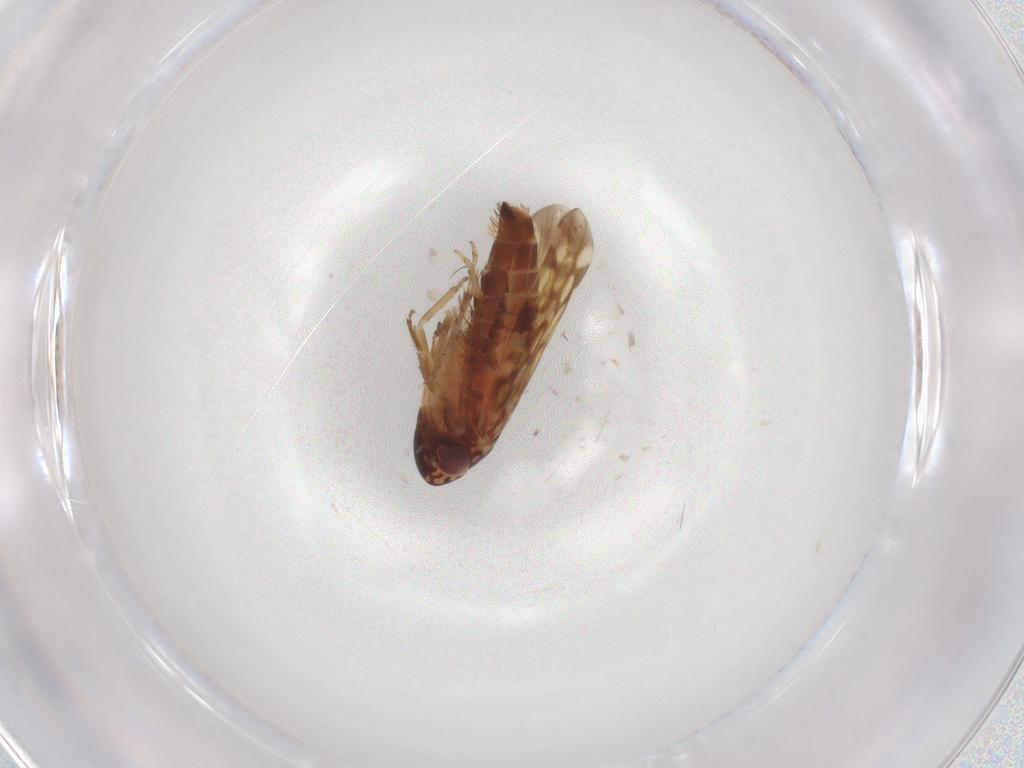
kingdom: Animalia
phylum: Arthropoda
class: Insecta
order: Hemiptera
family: Cicadellidae
